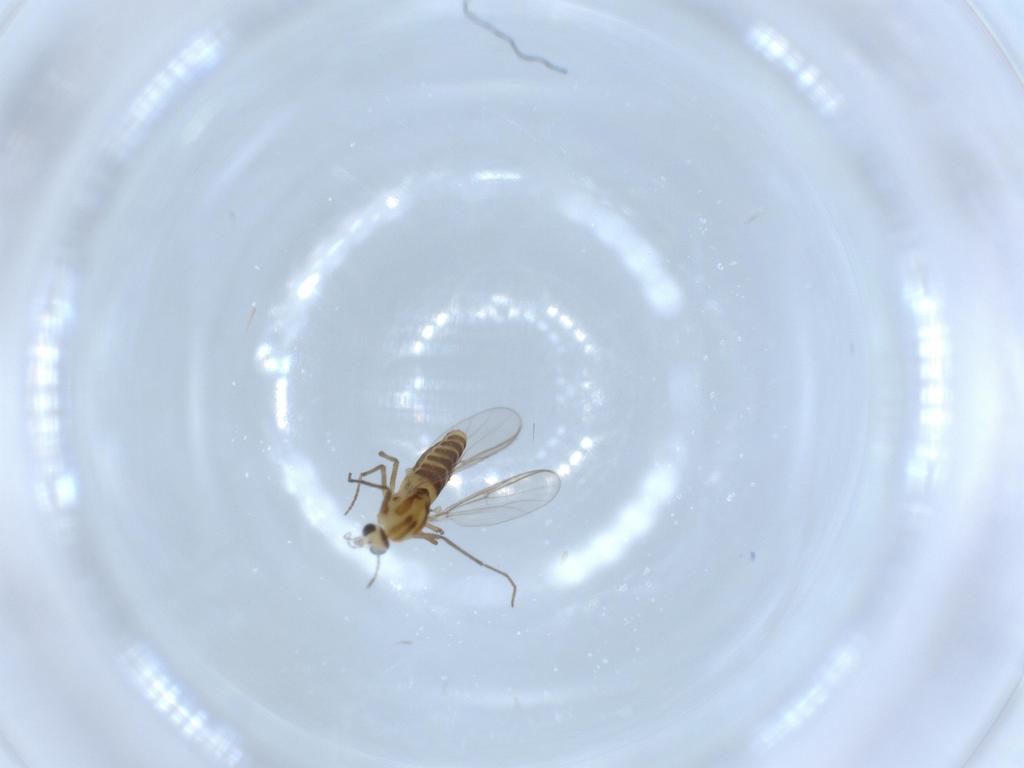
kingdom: Animalia
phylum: Arthropoda
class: Insecta
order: Diptera
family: Chironomidae
